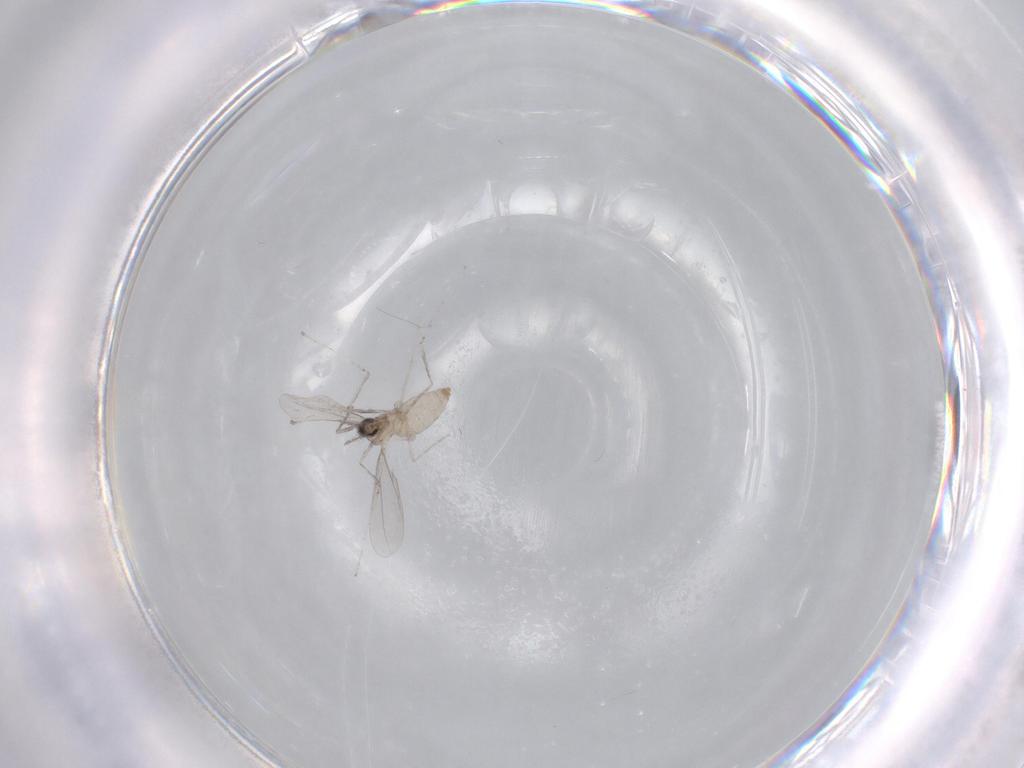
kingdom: Animalia
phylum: Arthropoda
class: Insecta
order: Diptera
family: Cecidomyiidae
